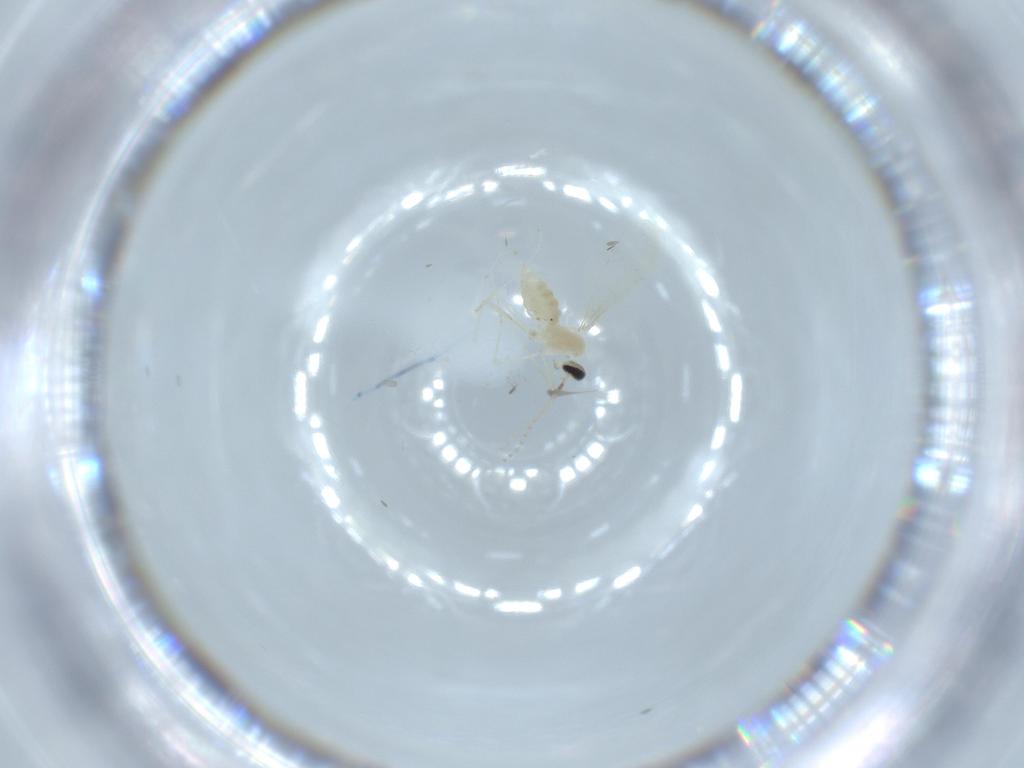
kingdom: Animalia
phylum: Arthropoda
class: Insecta
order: Diptera
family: Cecidomyiidae
